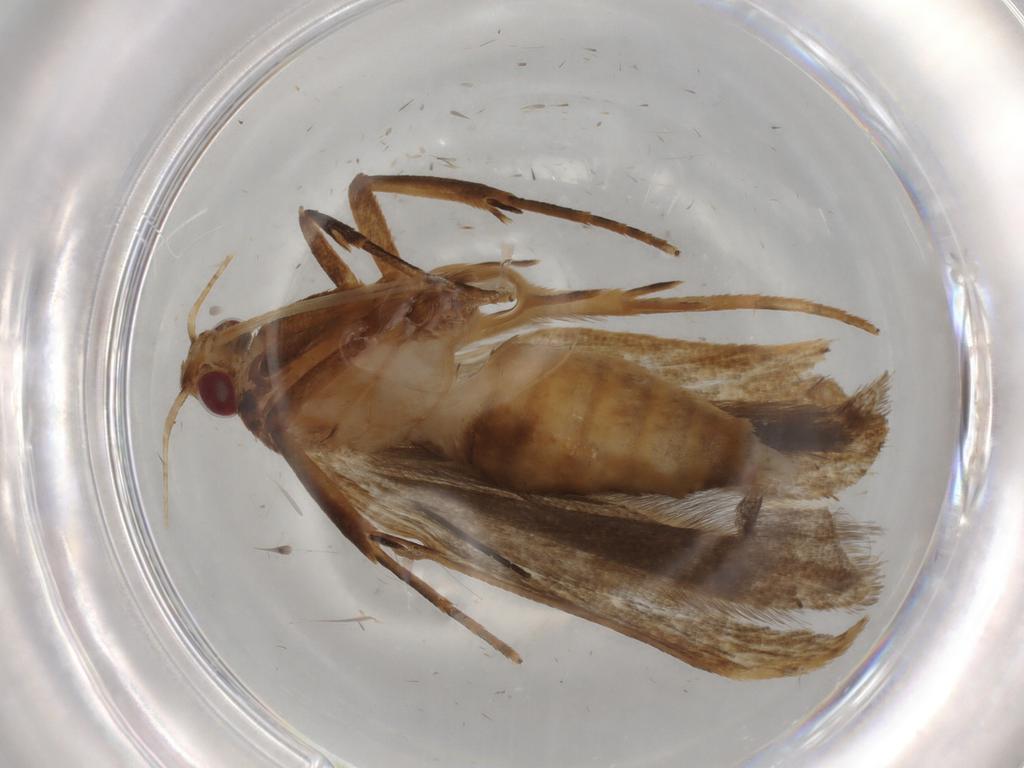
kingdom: Animalia
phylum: Arthropoda
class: Insecta
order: Lepidoptera
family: Depressariidae
